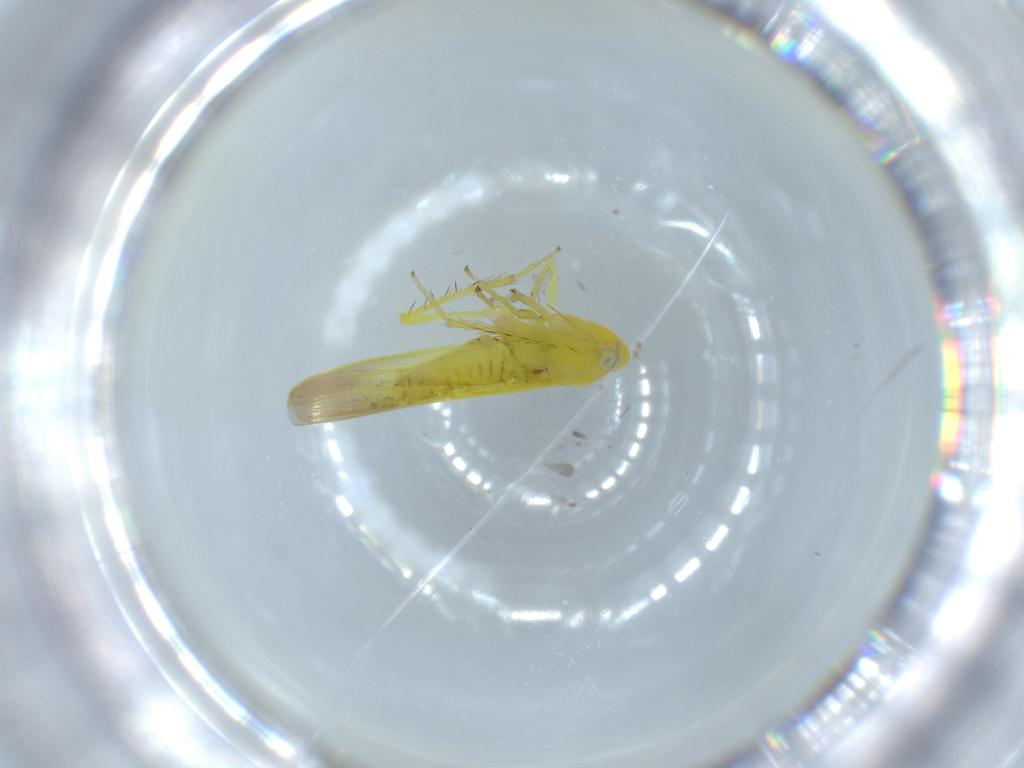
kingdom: Animalia
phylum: Arthropoda
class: Insecta
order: Hemiptera
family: Cicadellidae
